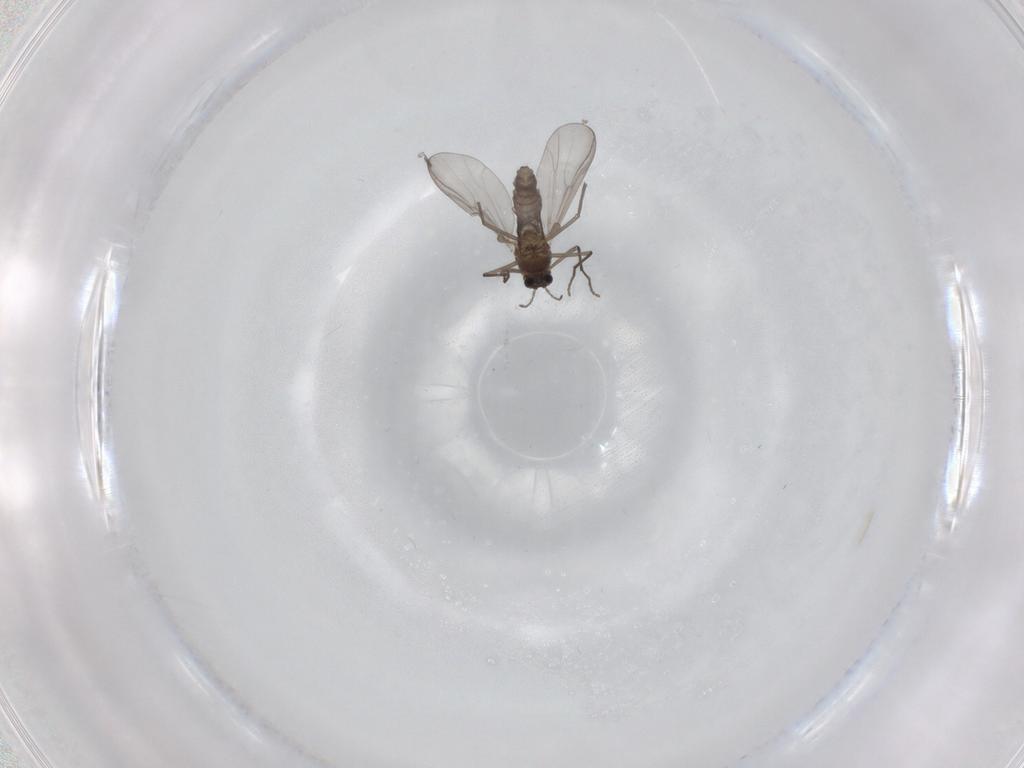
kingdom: Animalia
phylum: Arthropoda
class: Insecta
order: Diptera
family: Chironomidae
